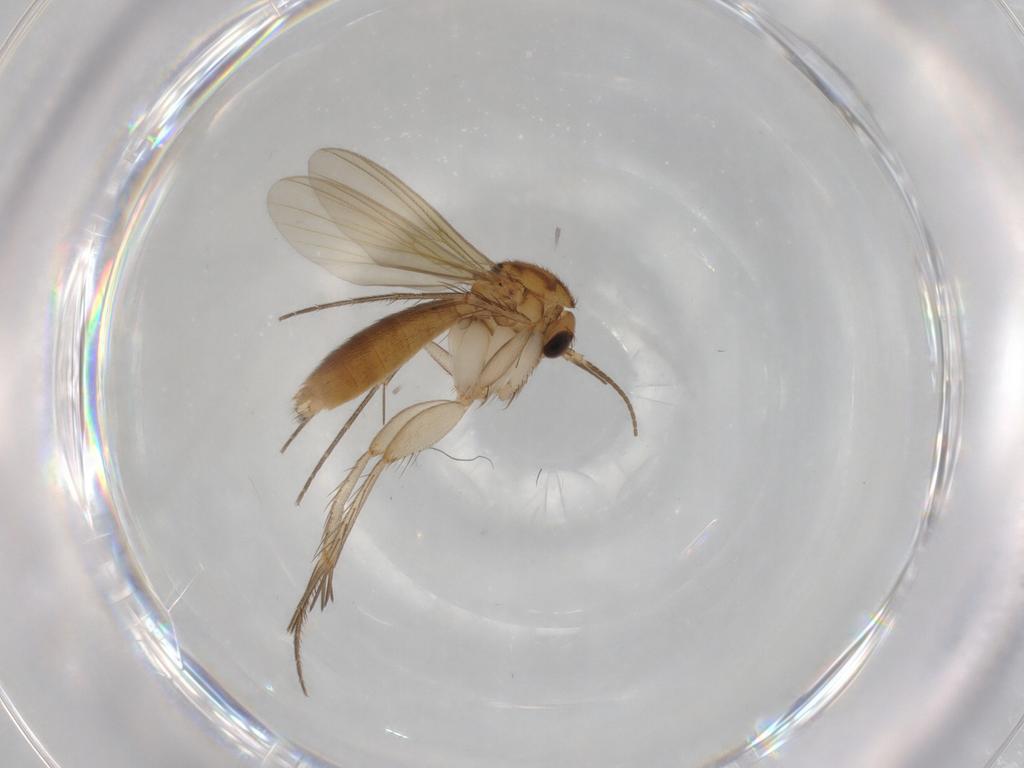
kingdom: Animalia
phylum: Arthropoda
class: Insecta
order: Diptera
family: Mycetophilidae
